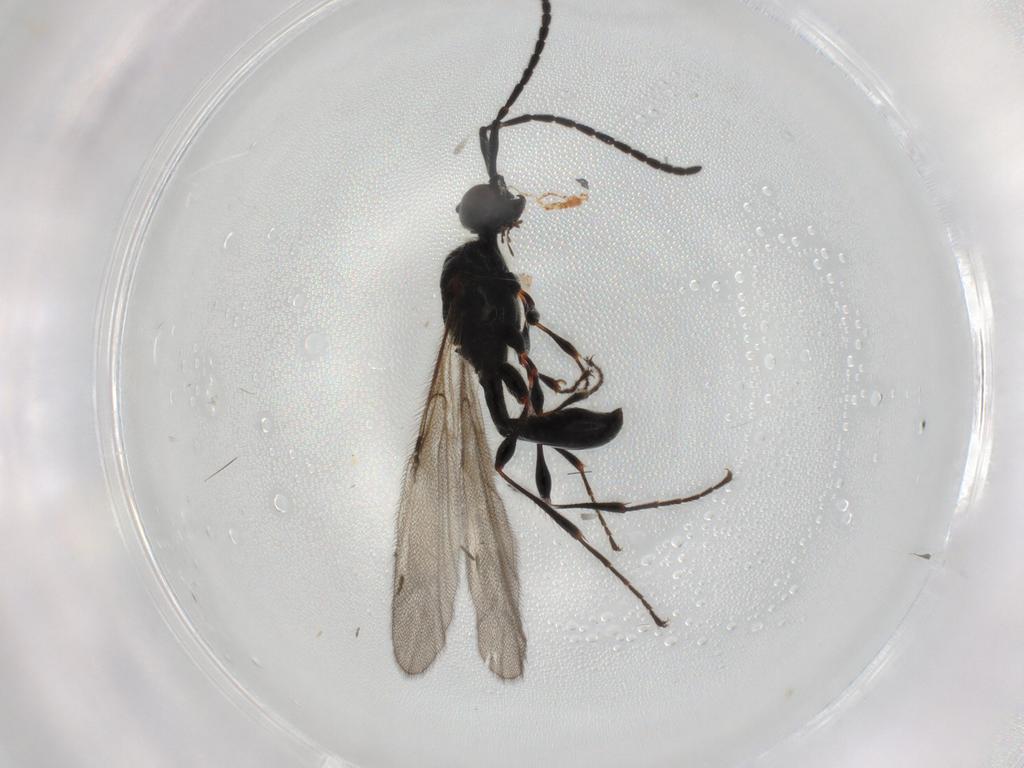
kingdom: Animalia
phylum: Arthropoda
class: Insecta
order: Hymenoptera
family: Diapriidae
